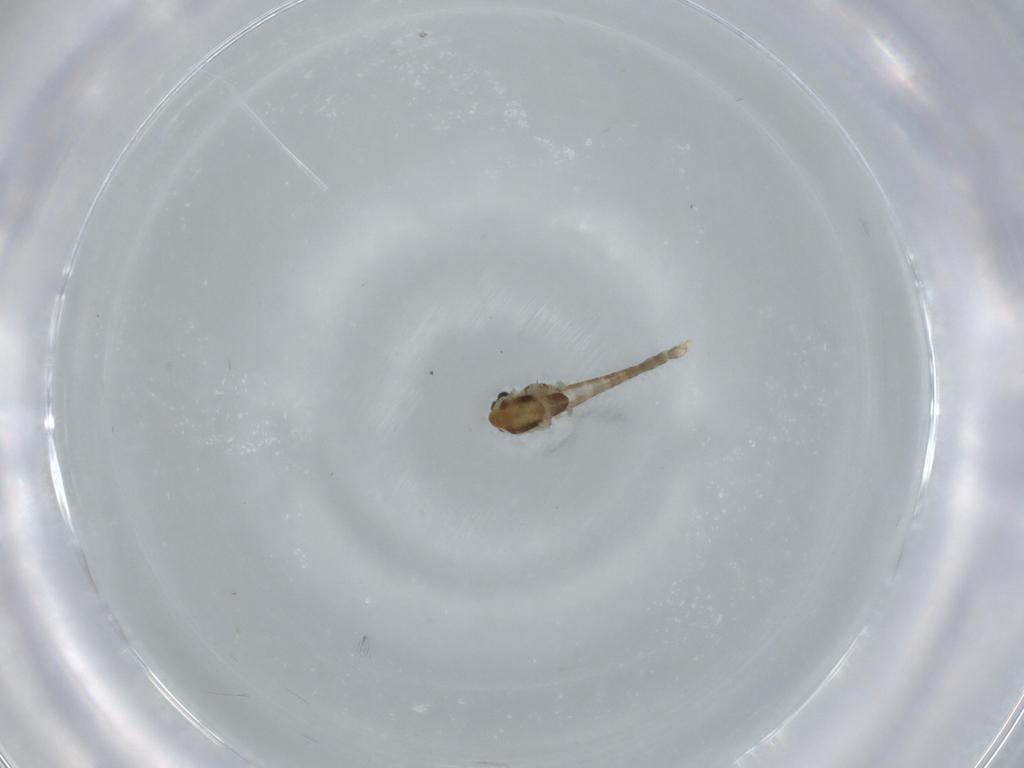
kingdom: Animalia
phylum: Arthropoda
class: Insecta
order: Diptera
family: Chironomidae
